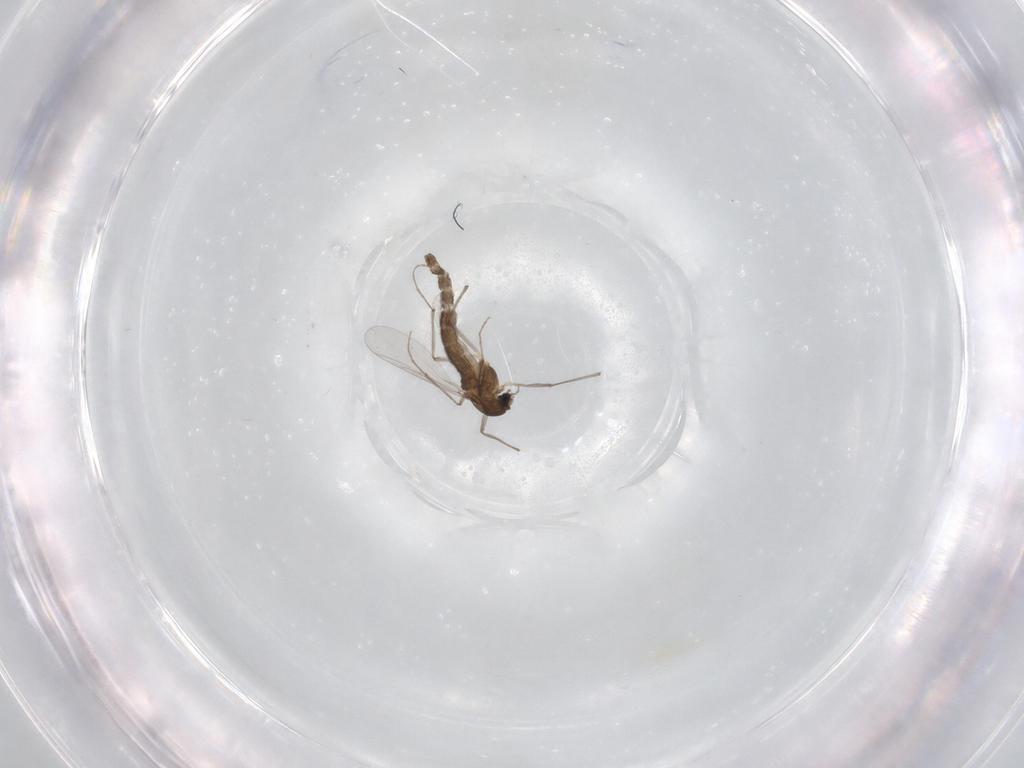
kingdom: Animalia
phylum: Arthropoda
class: Insecta
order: Diptera
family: Chironomidae
